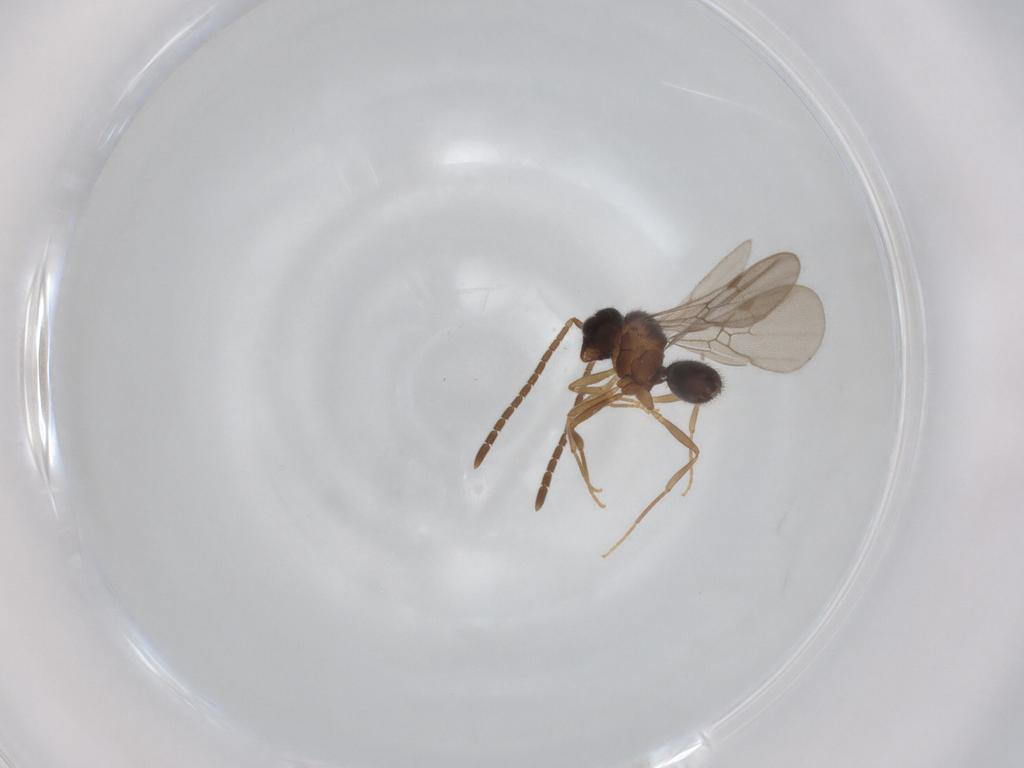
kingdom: Animalia
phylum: Arthropoda
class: Insecta
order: Hymenoptera
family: Formicidae
